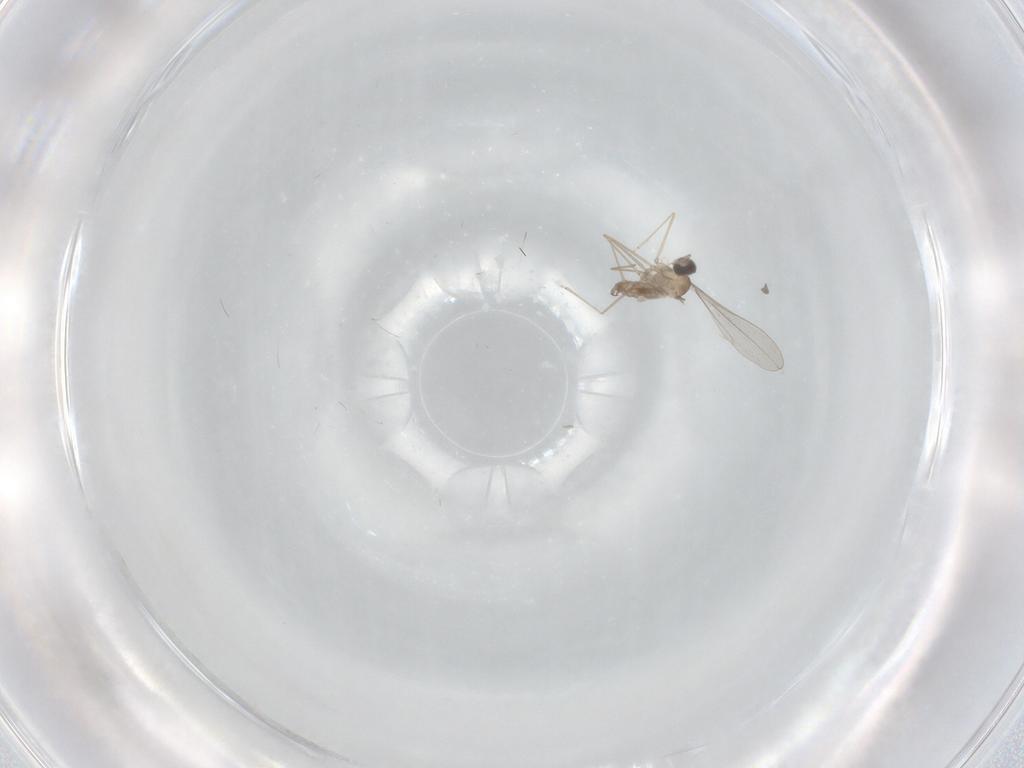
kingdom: Animalia
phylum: Arthropoda
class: Insecta
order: Diptera
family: Cecidomyiidae
